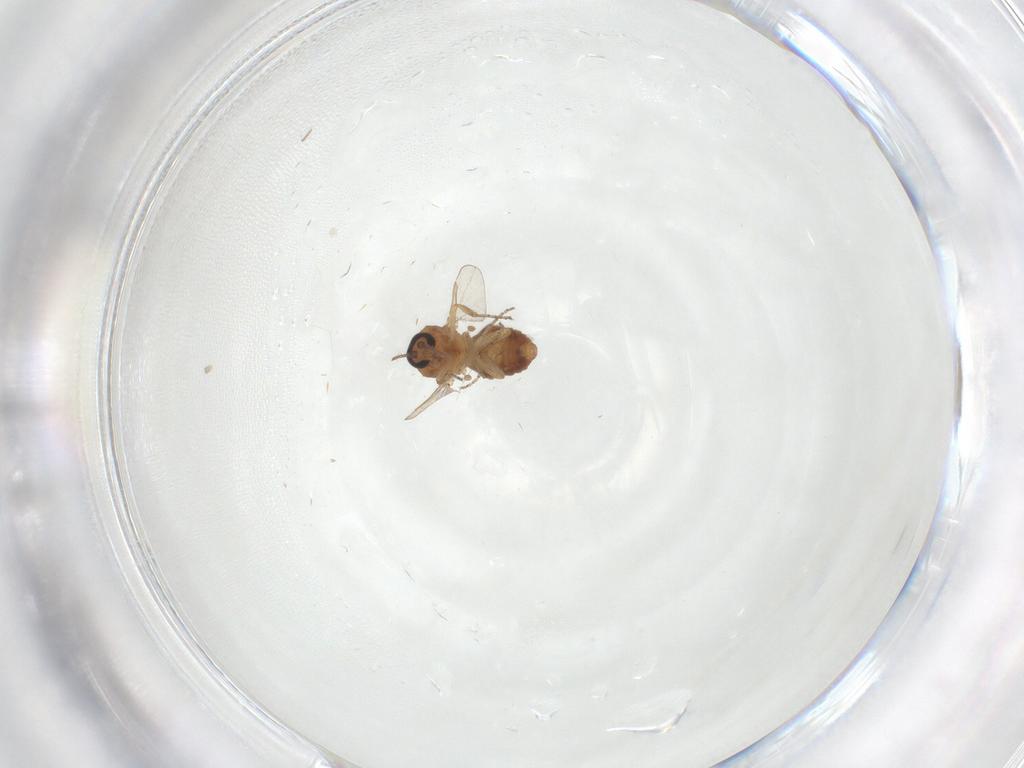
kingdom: Animalia
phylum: Arthropoda
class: Insecta
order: Diptera
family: Ceratopogonidae
